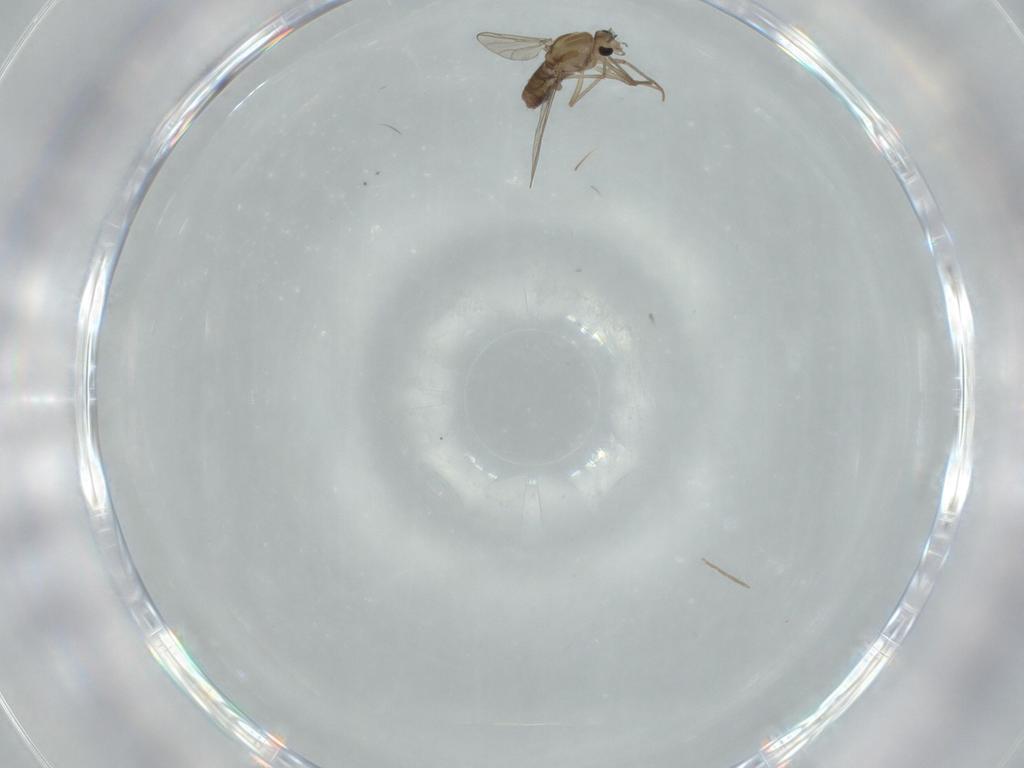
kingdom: Animalia
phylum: Arthropoda
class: Insecta
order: Diptera
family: Chironomidae
